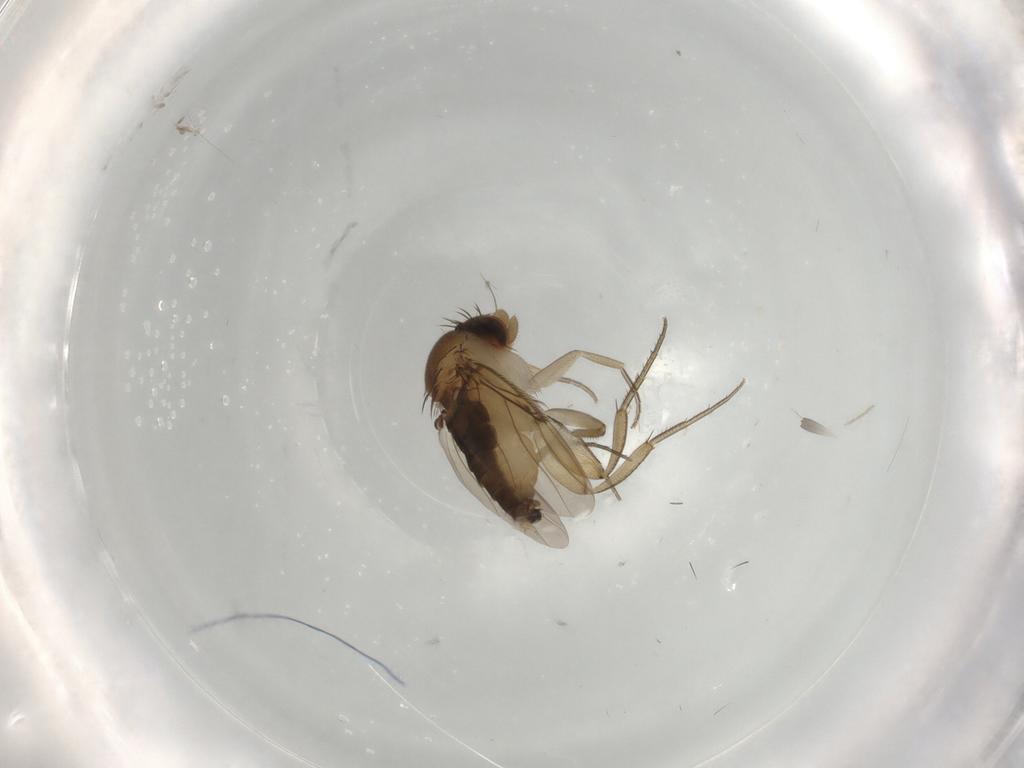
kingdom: Animalia
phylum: Arthropoda
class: Insecta
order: Diptera
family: Phoridae
